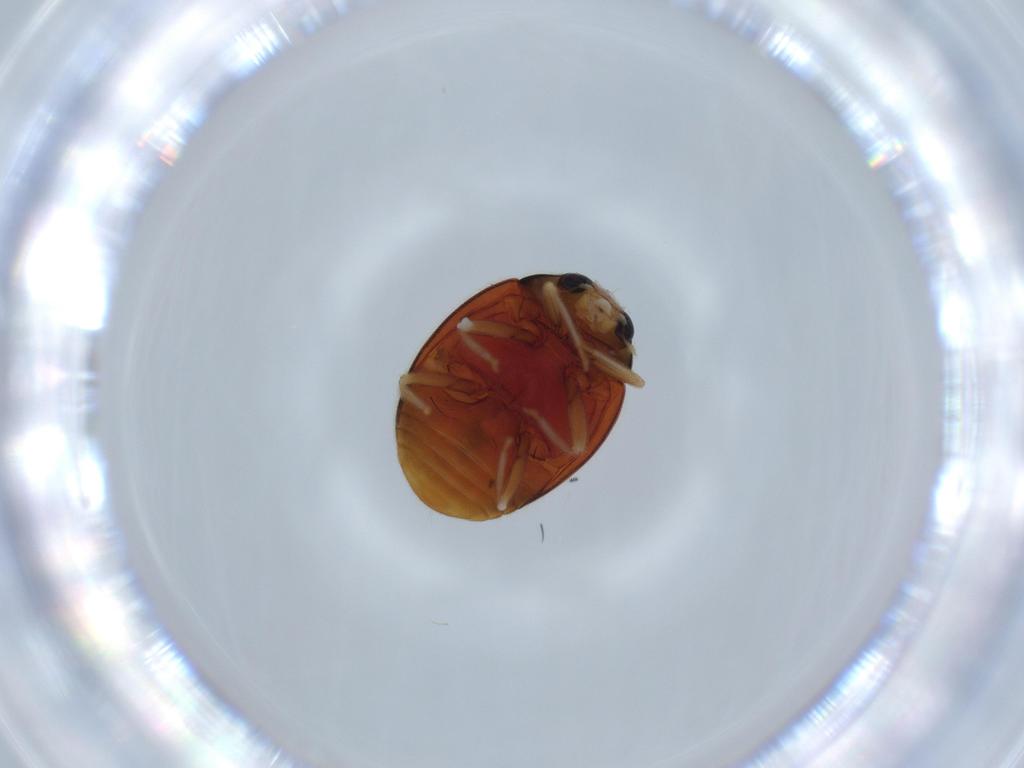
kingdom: Animalia
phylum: Arthropoda
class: Insecta
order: Coleoptera
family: Coccinellidae
